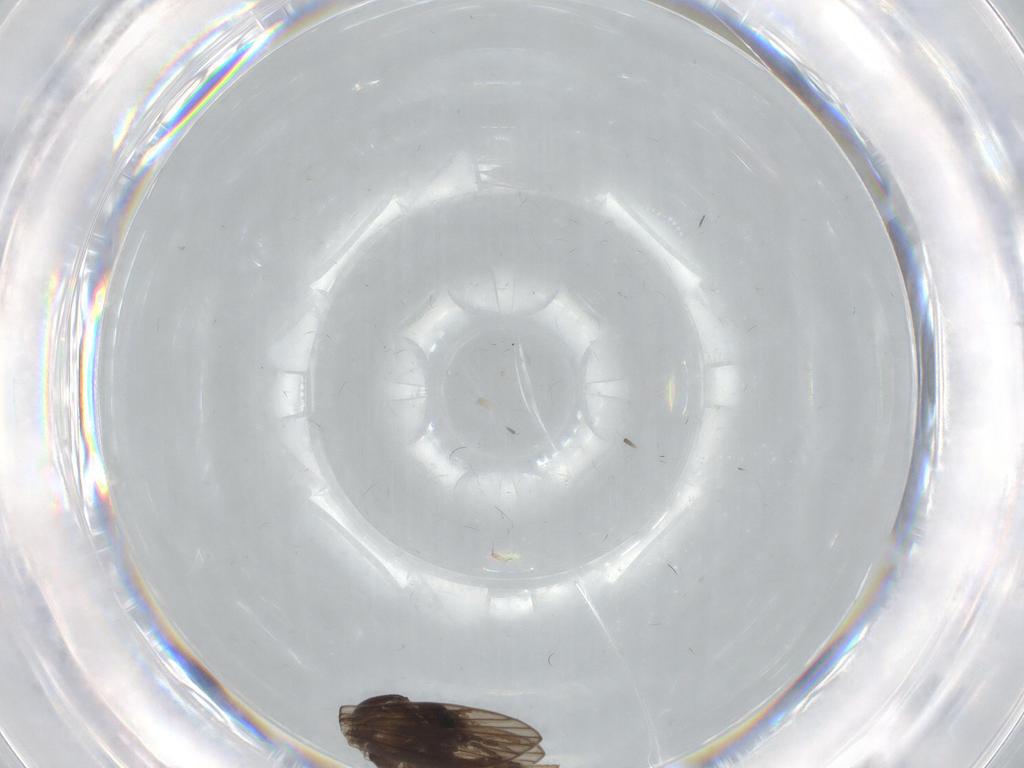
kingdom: Animalia
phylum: Arthropoda
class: Insecta
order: Diptera
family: Psychodidae
